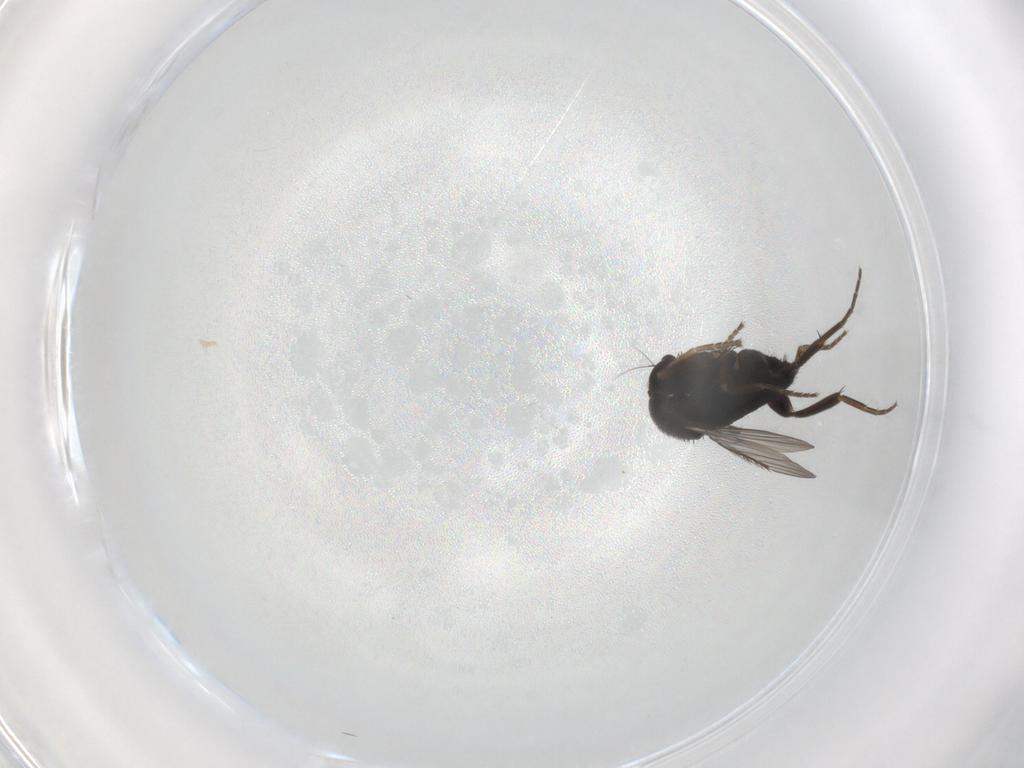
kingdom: Animalia
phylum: Arthropoda
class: Insecta
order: Diptera
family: Phoridae
